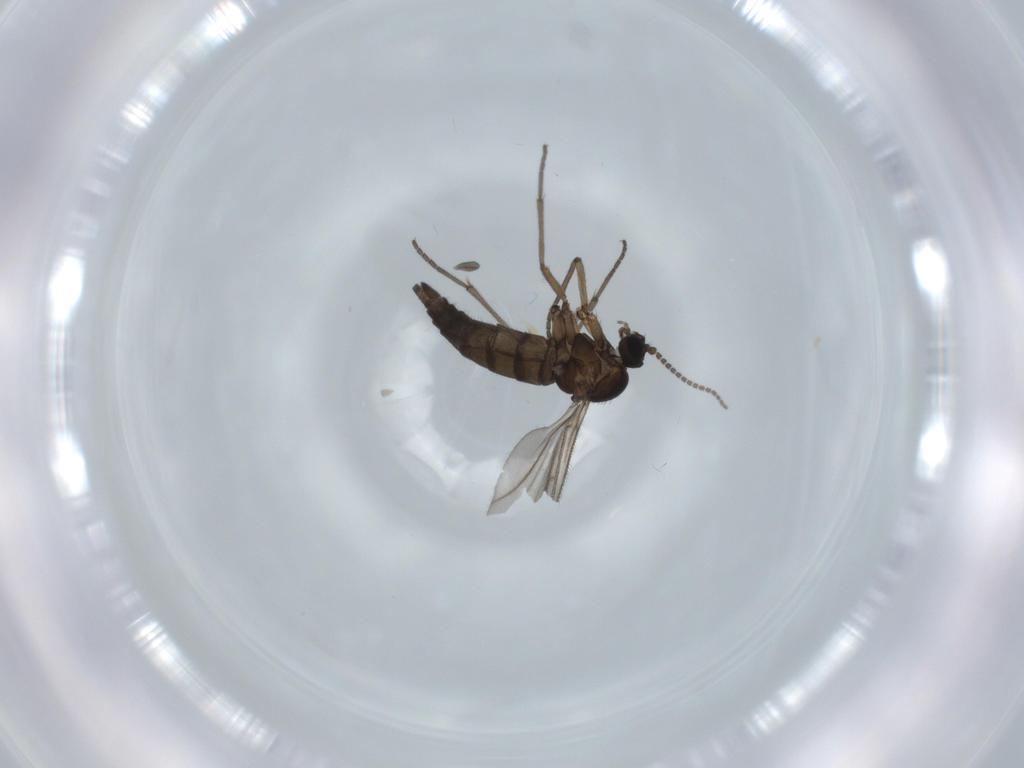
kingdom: Animalia
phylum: Arthropoda
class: Insecta
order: Diptera
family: Sciaridae
